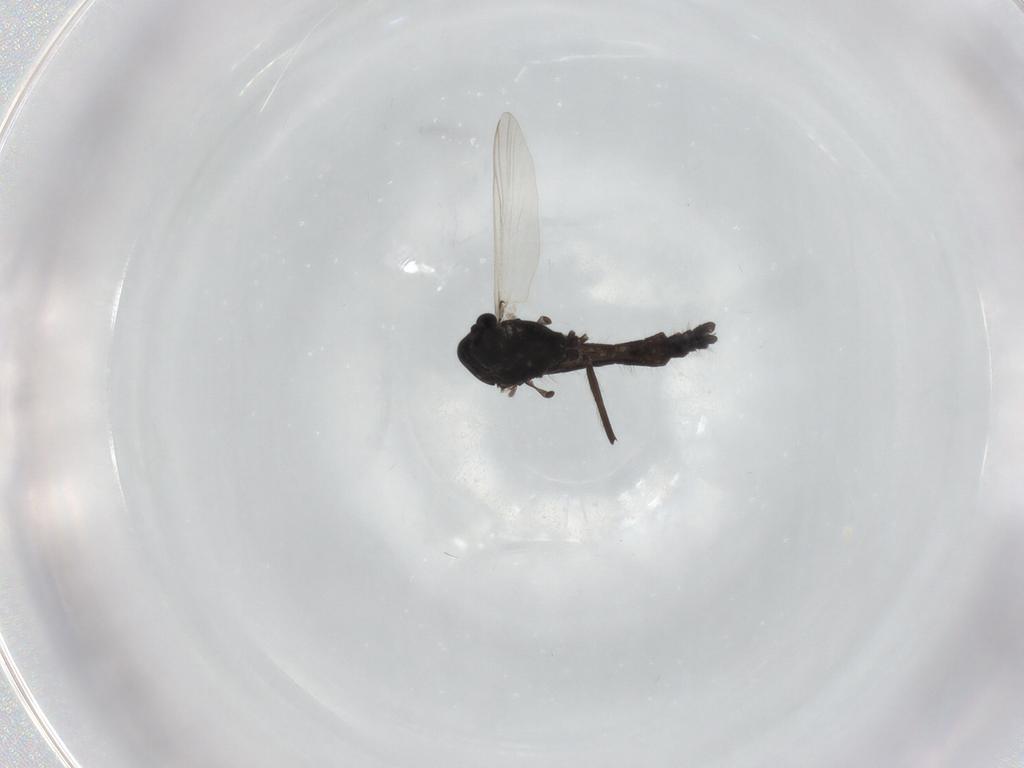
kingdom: Animalia
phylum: Arthropoda
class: Insecta
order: Diptera
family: Chironomidae
